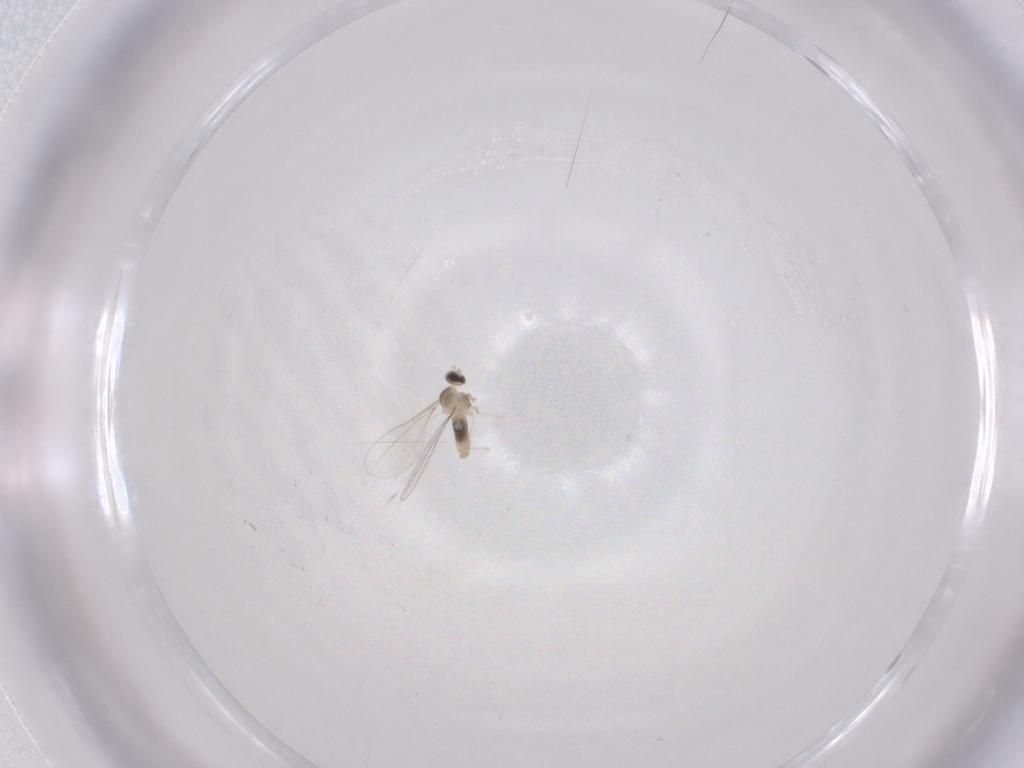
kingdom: Animalia
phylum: Arthropoda
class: Insecta
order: Diptera
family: Cecidomyiidae
